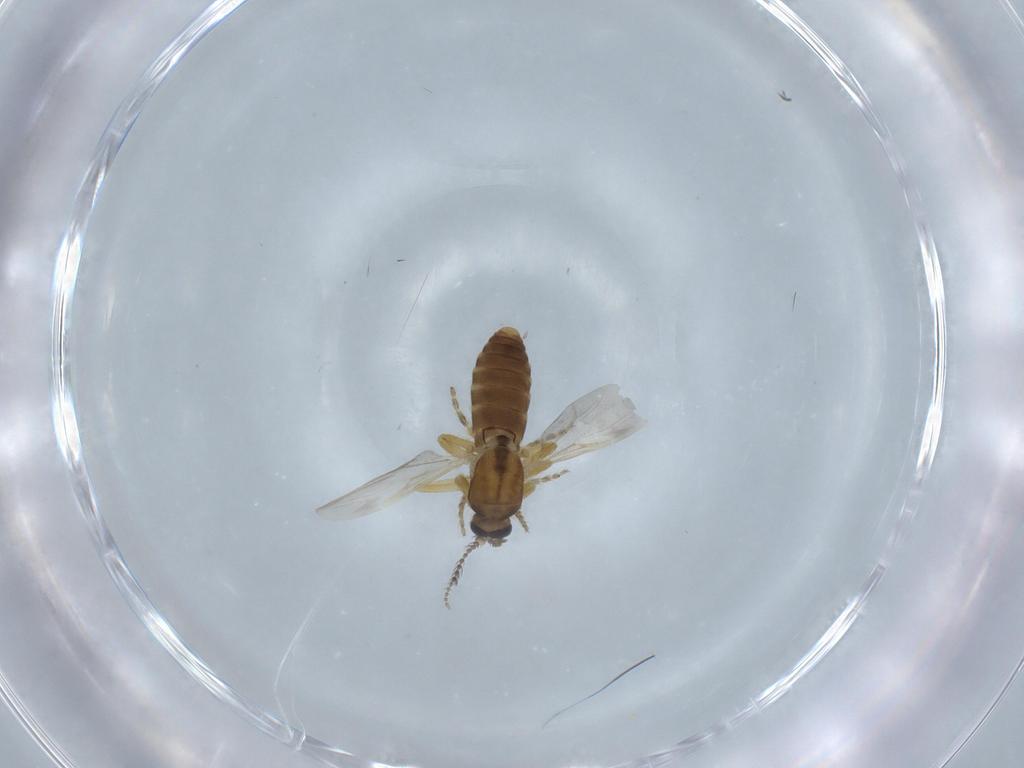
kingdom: Animalia
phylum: Arthropoda
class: Insecta
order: Diptera
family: Ceratopogonidae
